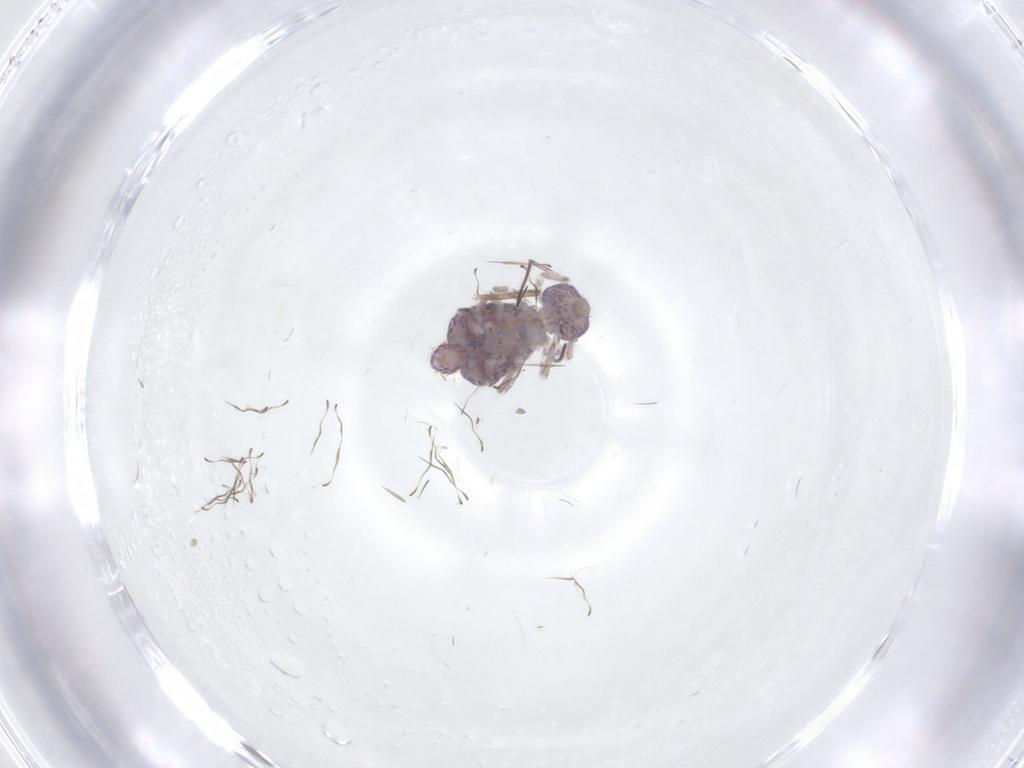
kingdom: Animalia
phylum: Arthropoda
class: Collembola
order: Symphypleona
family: Sminthuridae
